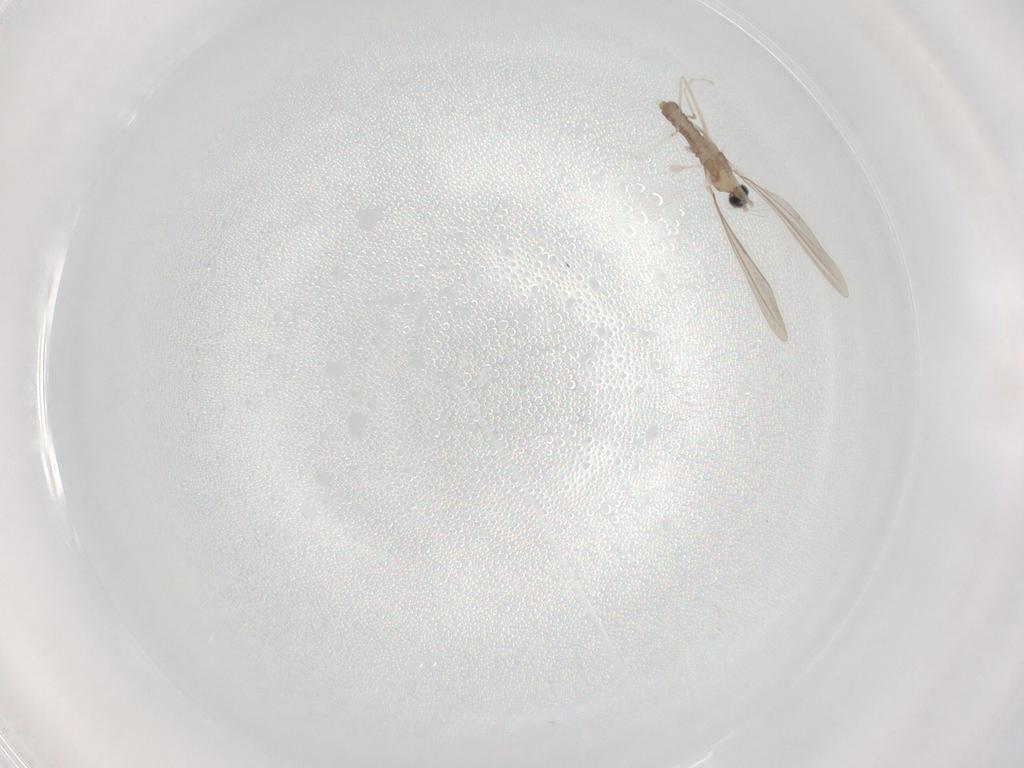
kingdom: Animalia
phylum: Arthropoda
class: Insecta
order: Diptera
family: Cecidomyiidae
